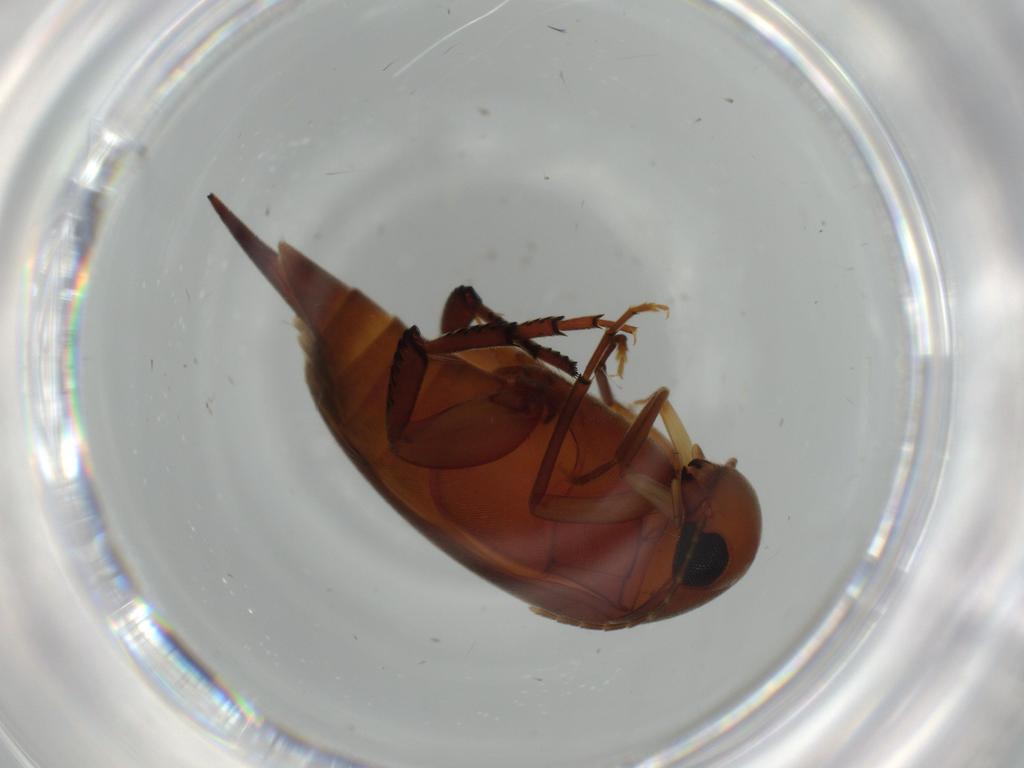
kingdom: Animalia
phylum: Arthropoda
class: Insecta
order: Coleoptera
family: Mordellidae
